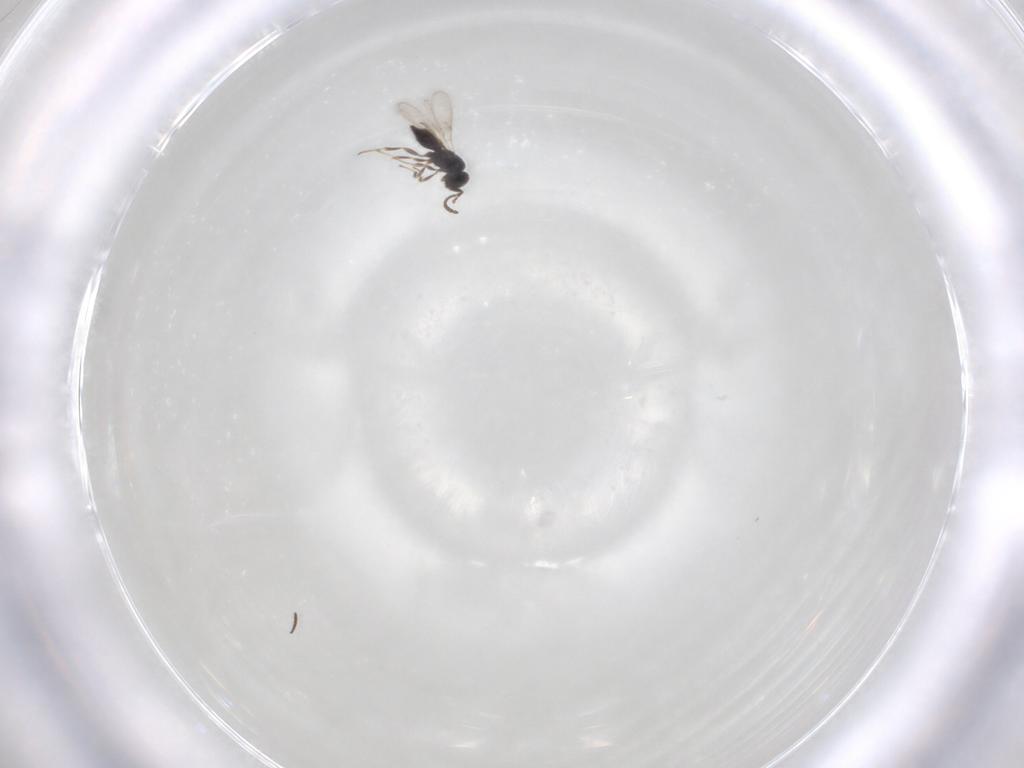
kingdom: Animalia
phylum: Arthropoda
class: Insecta
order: Hymenoptera
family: Scelionidae
